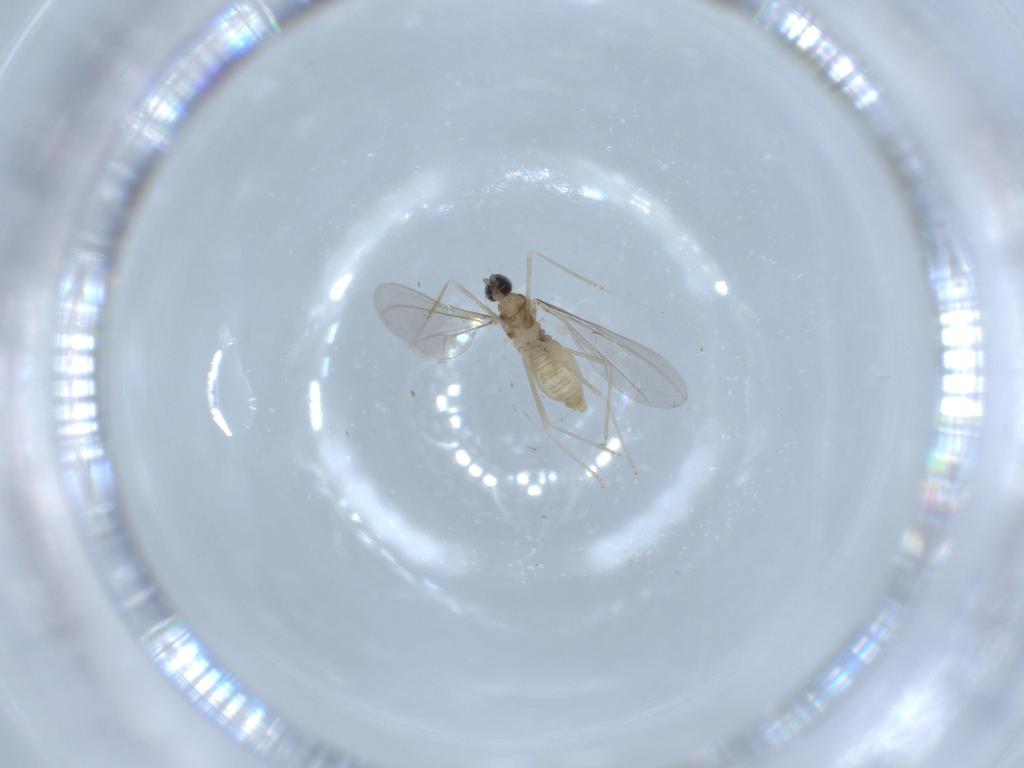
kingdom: Animalia
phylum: Arthropoda
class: Insecta
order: Diptera
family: Cecidomyiidae
